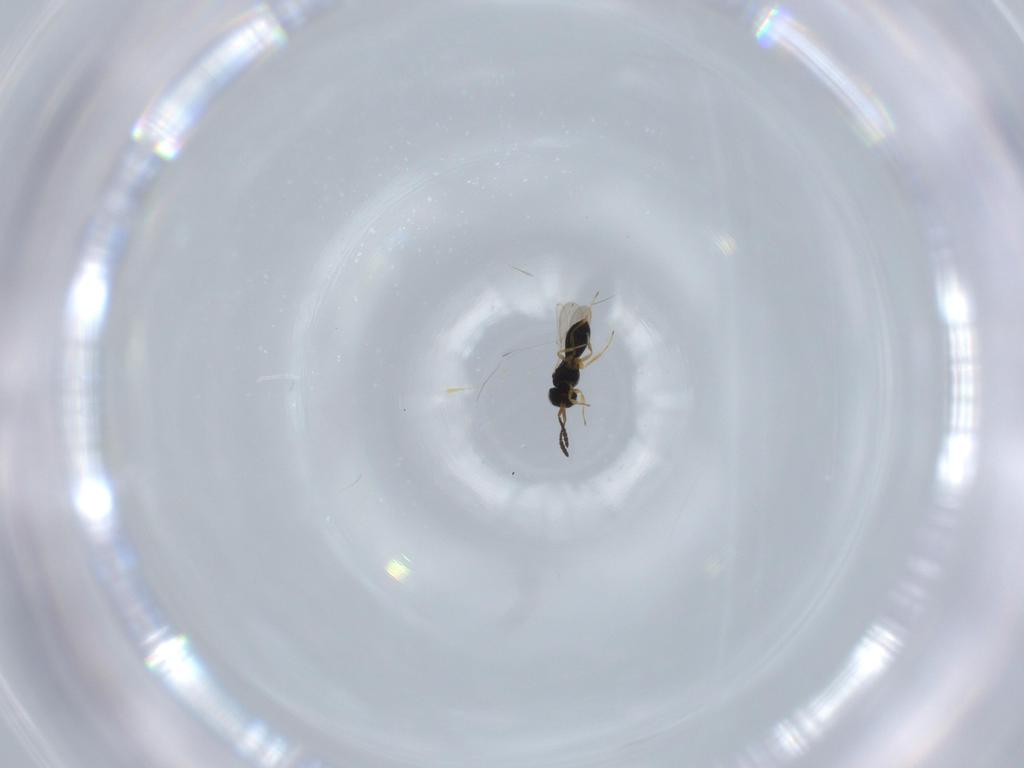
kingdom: Animalia
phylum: Arthropoda
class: Insecta
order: Hymenoptera
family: Scelionidae
